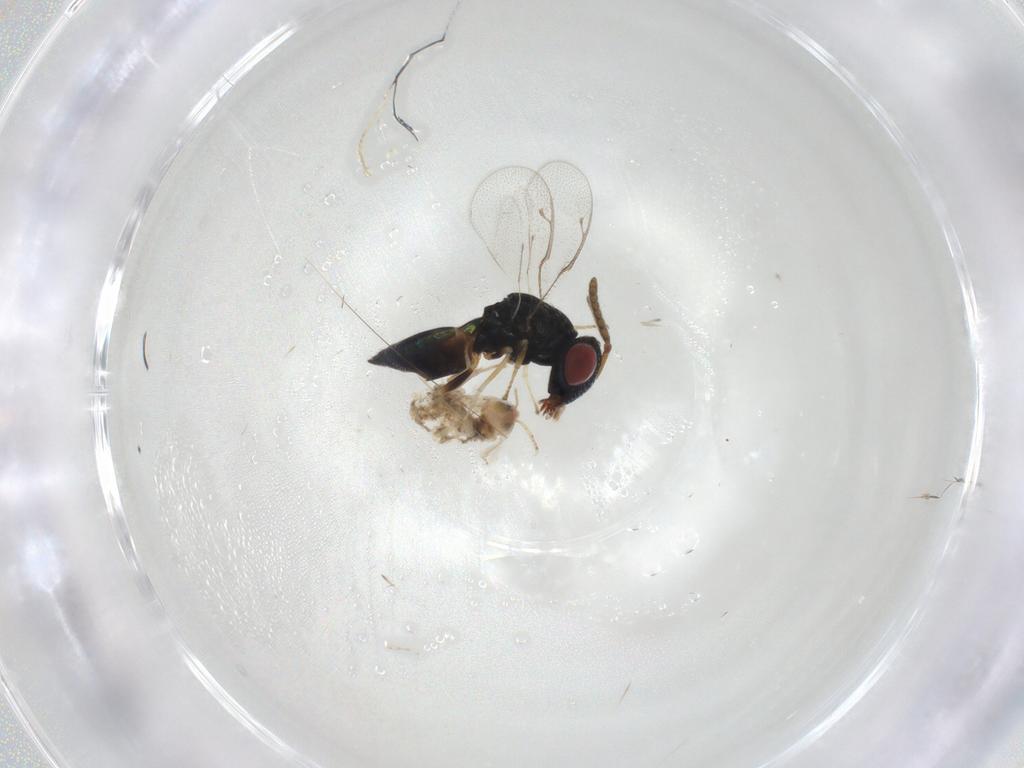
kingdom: Animalia
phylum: Arthropoda
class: Insecta
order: Hymenoptera
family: Pteromalidae
